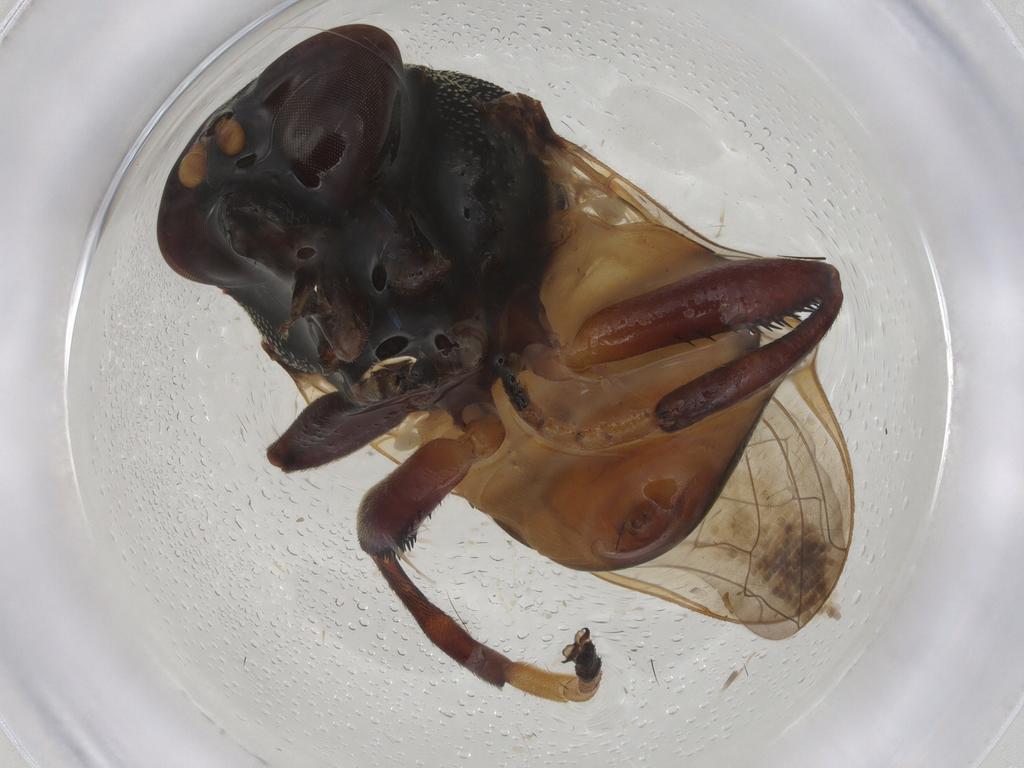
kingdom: Animalia
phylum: Arthropoda
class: Insecta
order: Diptera
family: Syrphidae
